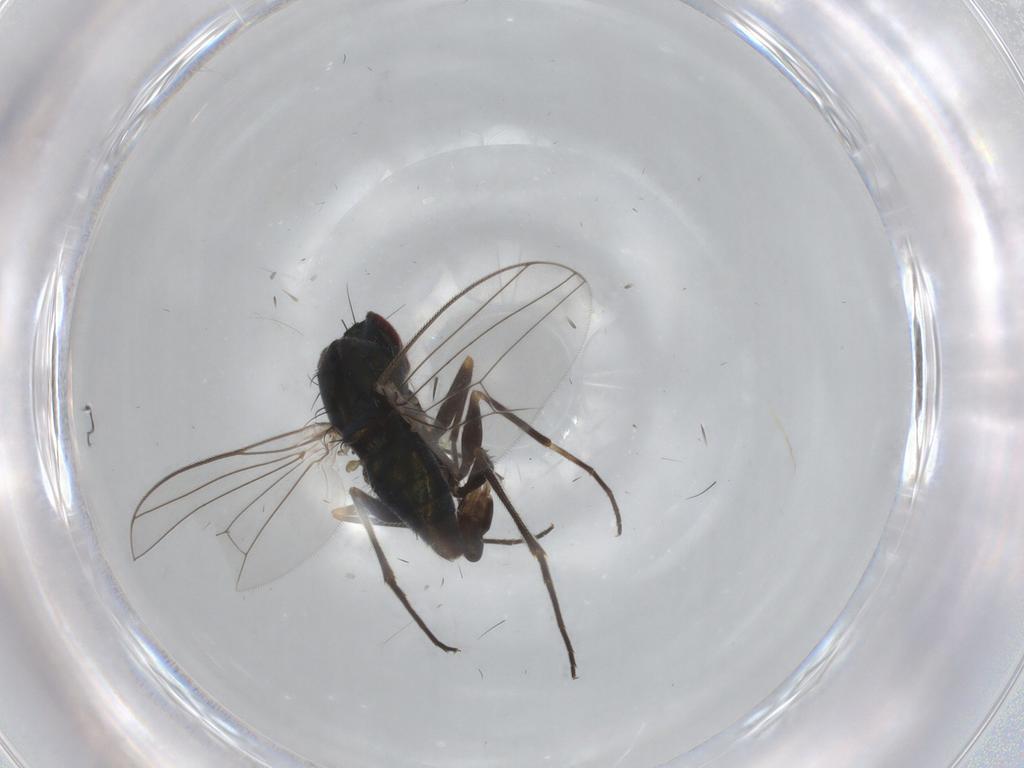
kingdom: Animalia
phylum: Arthropoda
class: Insecta
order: Diptera
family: Dolichopodidae
